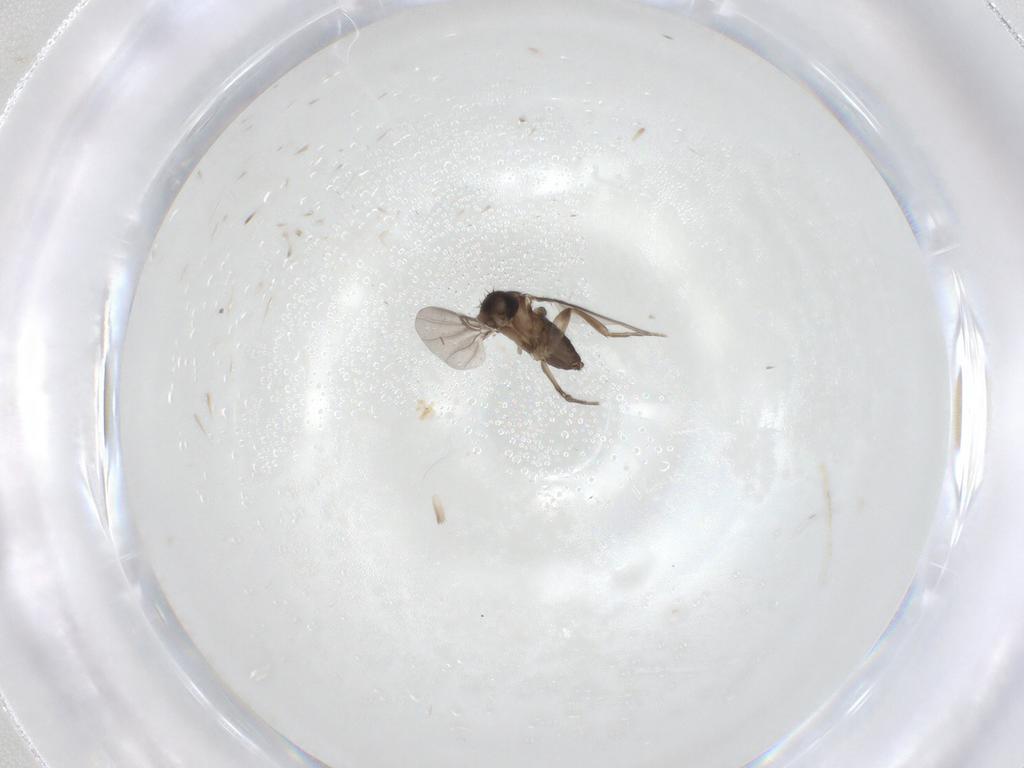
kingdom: Animalia
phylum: Arthropoda
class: Insecta
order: Diptera
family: Phoridae
